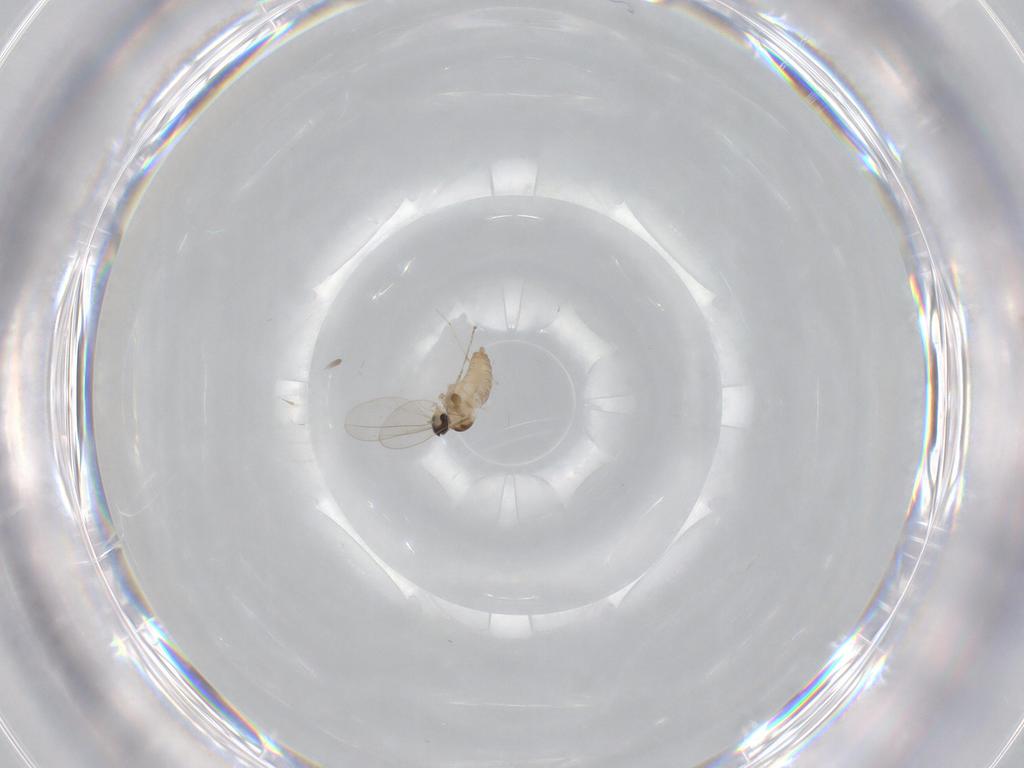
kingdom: Animalia
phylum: Arthropoda
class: Insecta
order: Diptera
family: Cecidomyiidae
